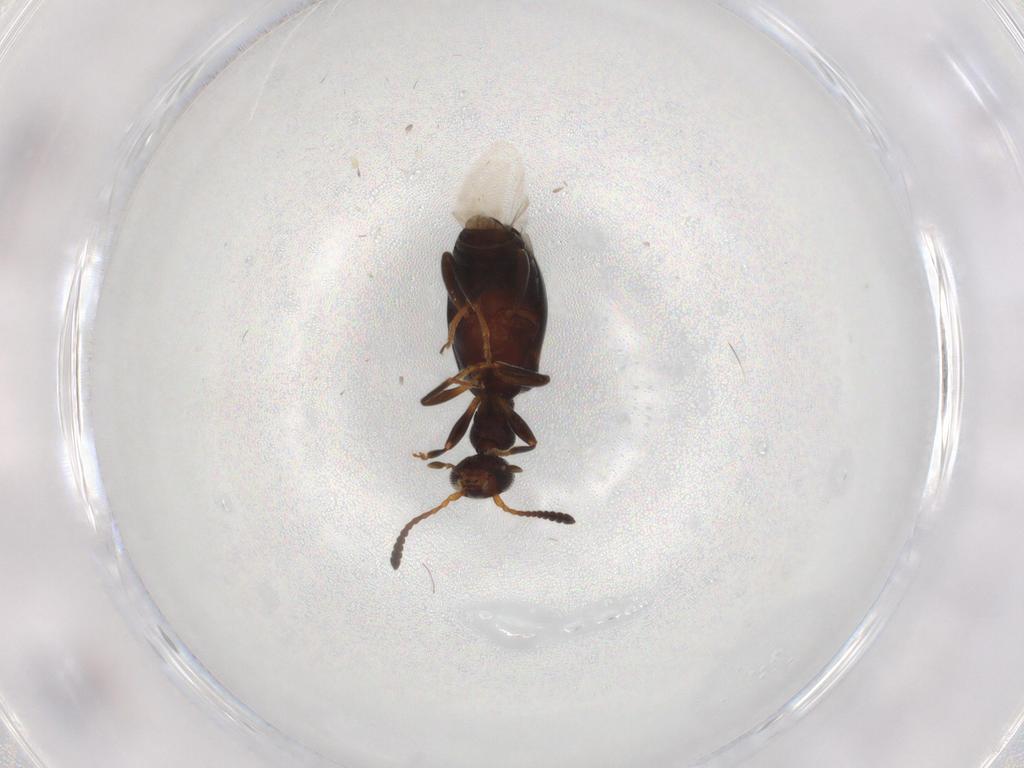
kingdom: Animalia
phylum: Arthropoda
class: Insecta
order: Coleoptera
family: Anthicidae
